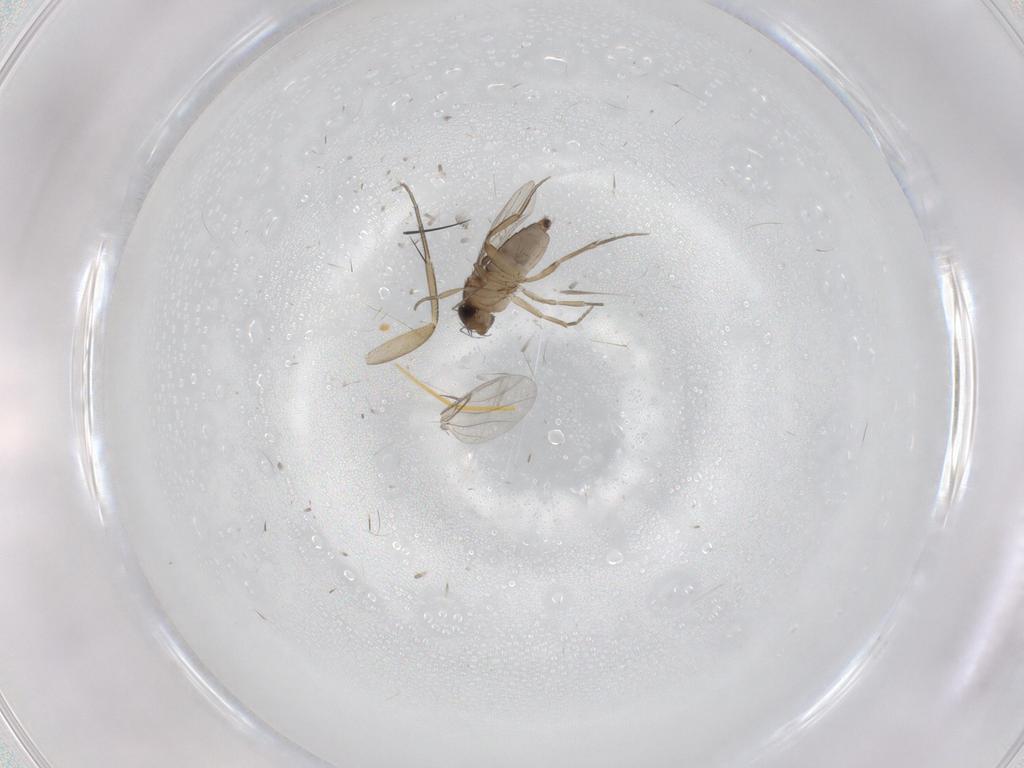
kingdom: Animalia
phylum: Arthropoda
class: Insecta
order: Diptera
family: Phoridae
